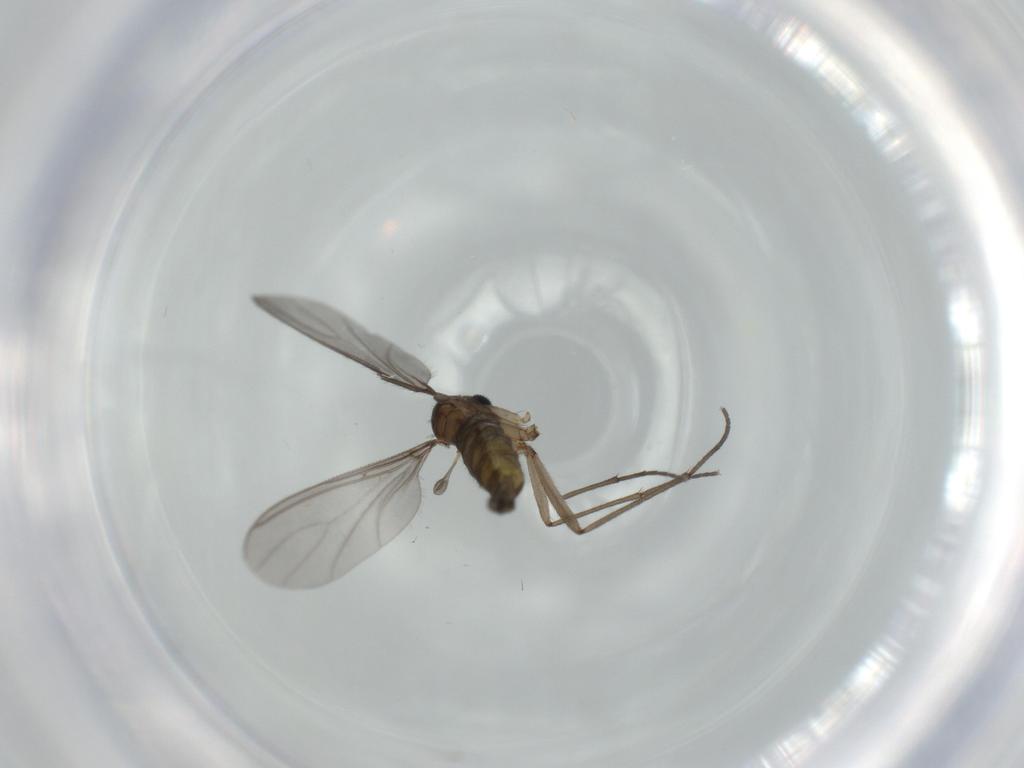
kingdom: Animalia
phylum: Arthropoda
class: Insecta
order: Diptera
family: Sciaridae
